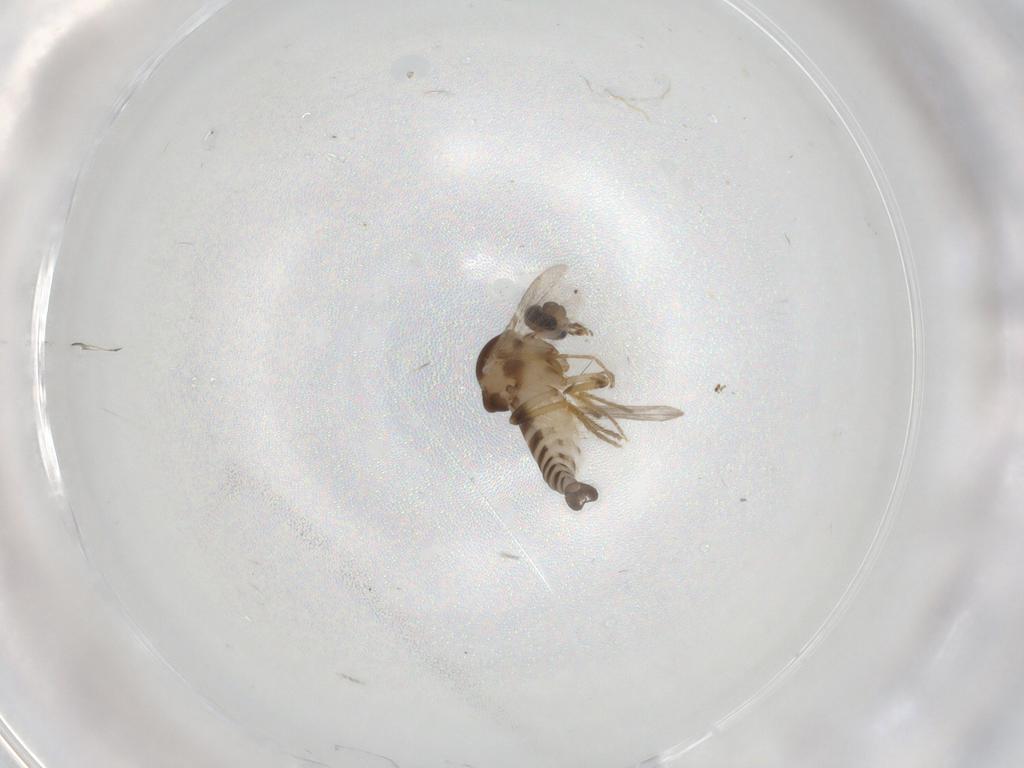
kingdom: Animalia
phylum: Arthropoda
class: Insecta
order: Diptera
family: Ceratopogonidae
